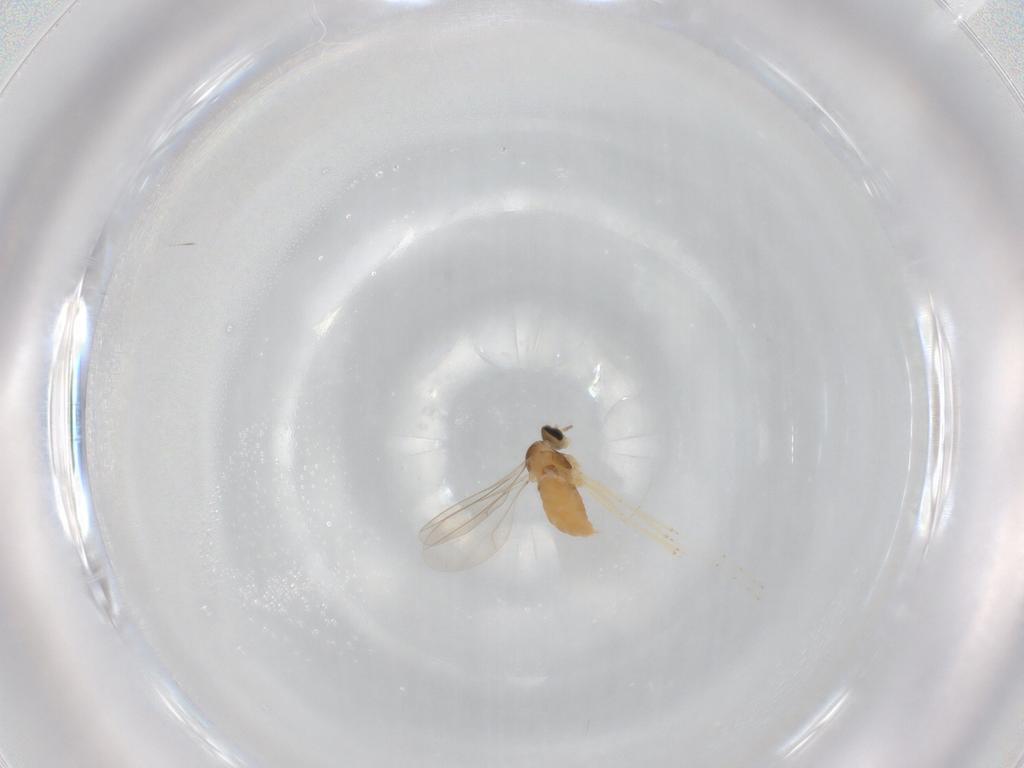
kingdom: Animalia
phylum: Arthropoda
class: Insecta
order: Diptera
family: Cecidomyiidae
